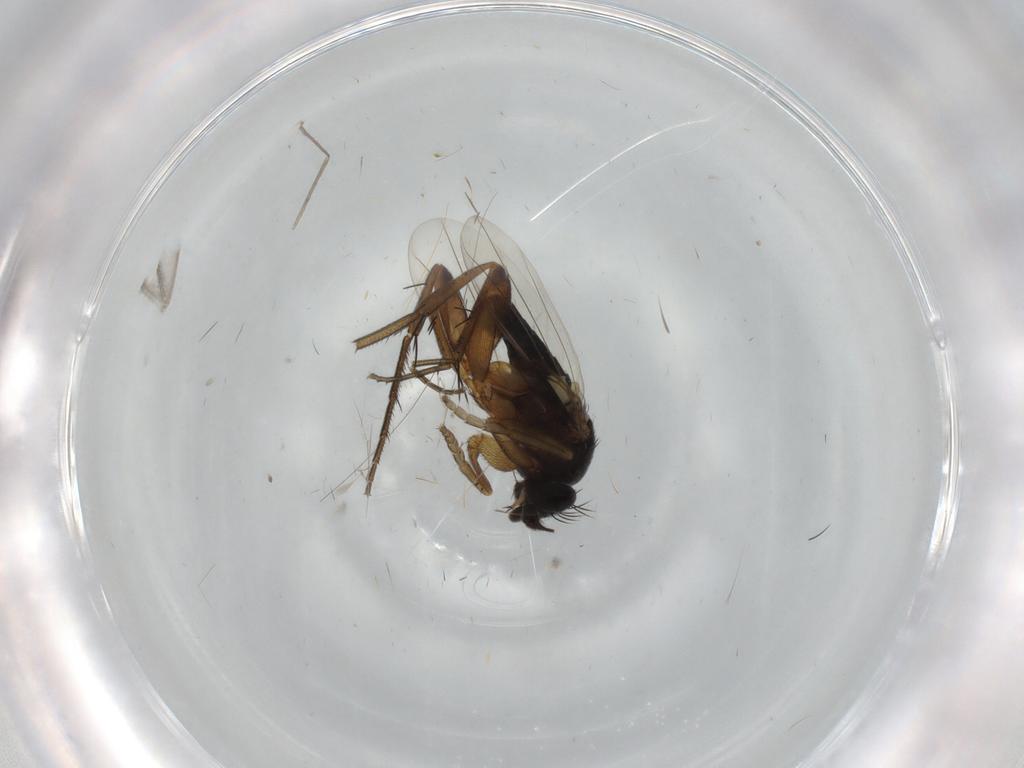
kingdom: Animalia
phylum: Arthropoda
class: Insecta
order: Diptera
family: Phoridae
